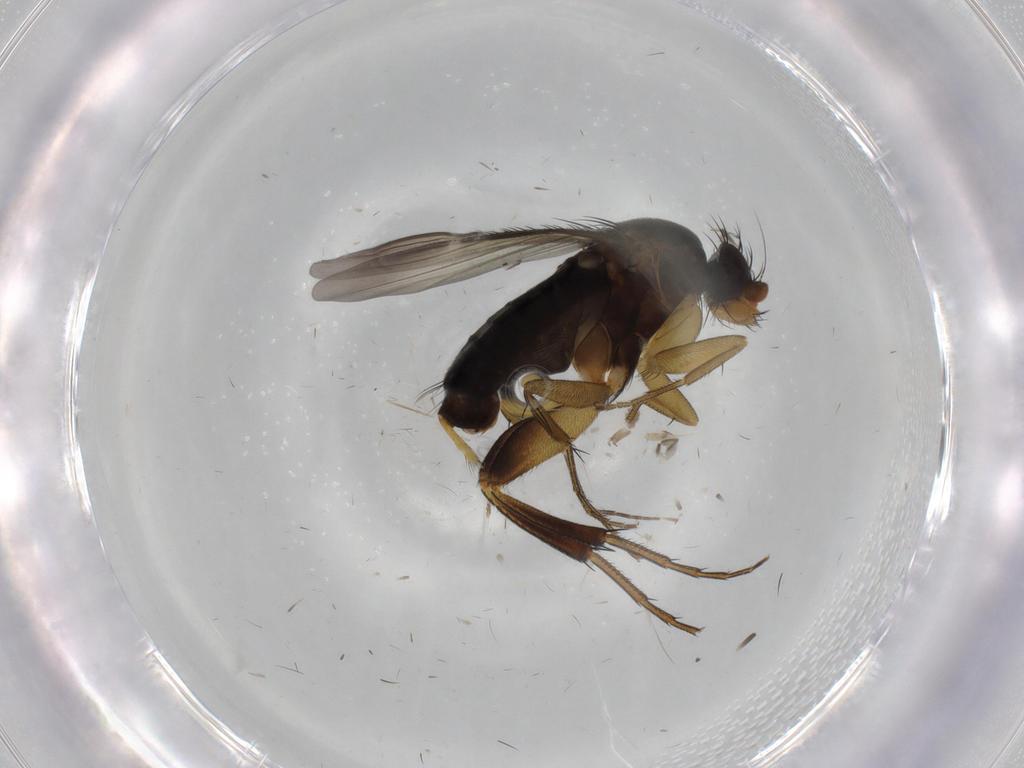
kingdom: Animalia
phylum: Arthropoda
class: Insecta
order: Diptera
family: Phoridae
